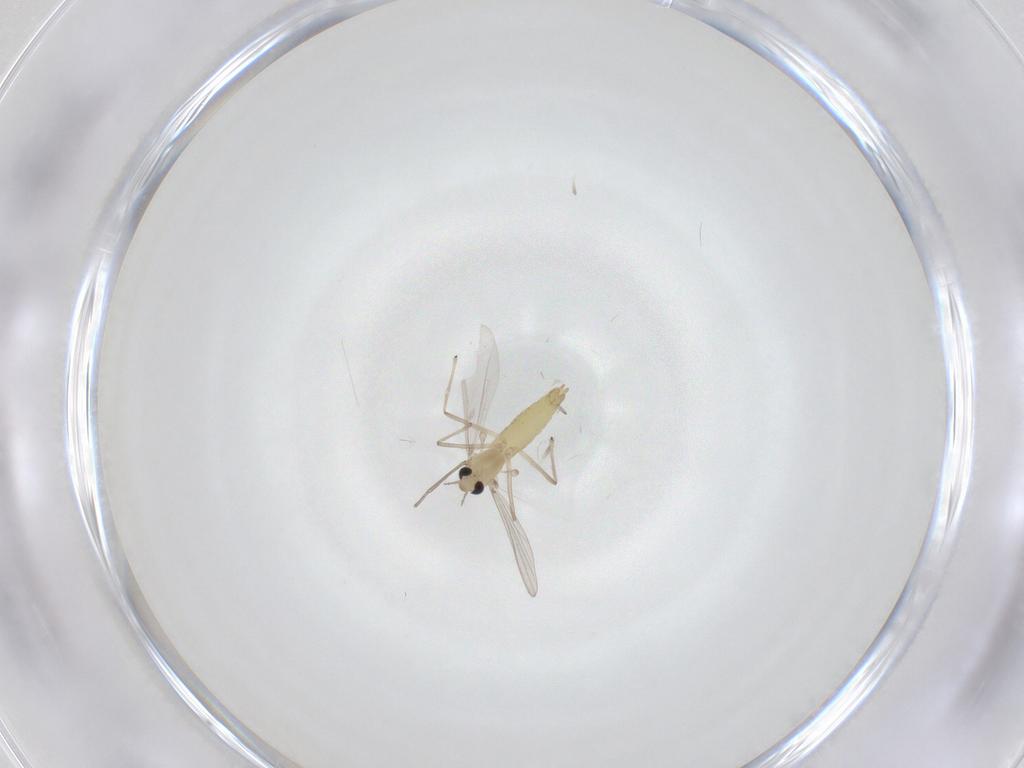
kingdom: Animalia
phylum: Arthropoda
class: Insecta
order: Diptera
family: Chironomidae
